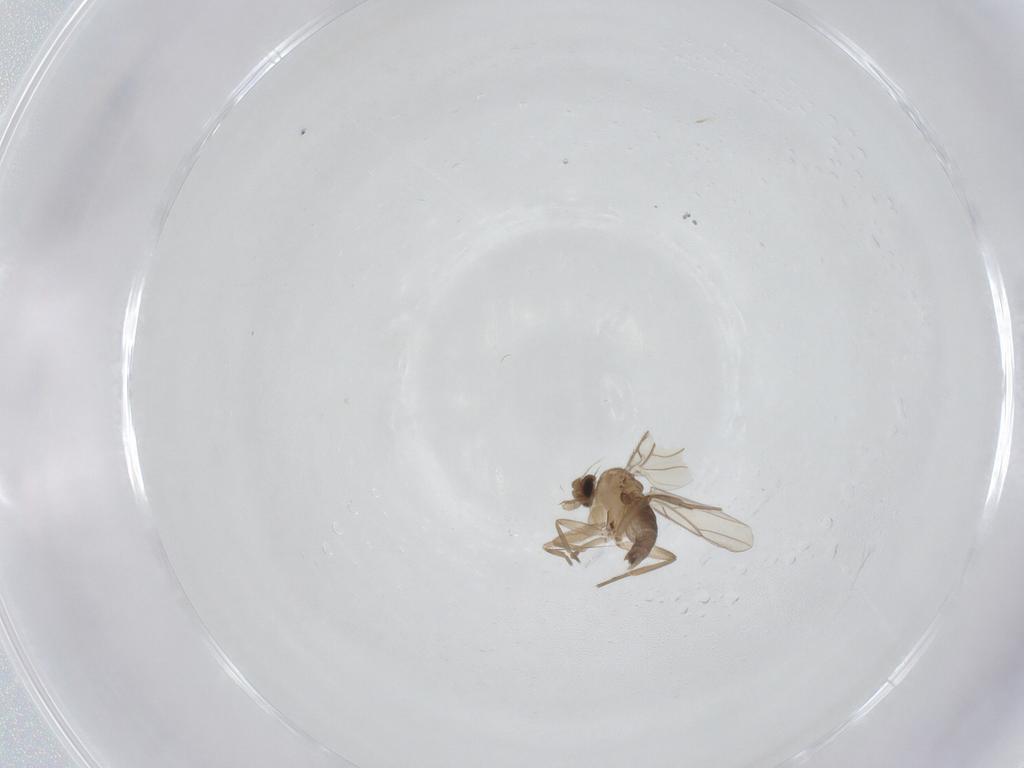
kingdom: Animalia
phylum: Arthropoda
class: Insecta
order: Diptera
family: Phoridae
